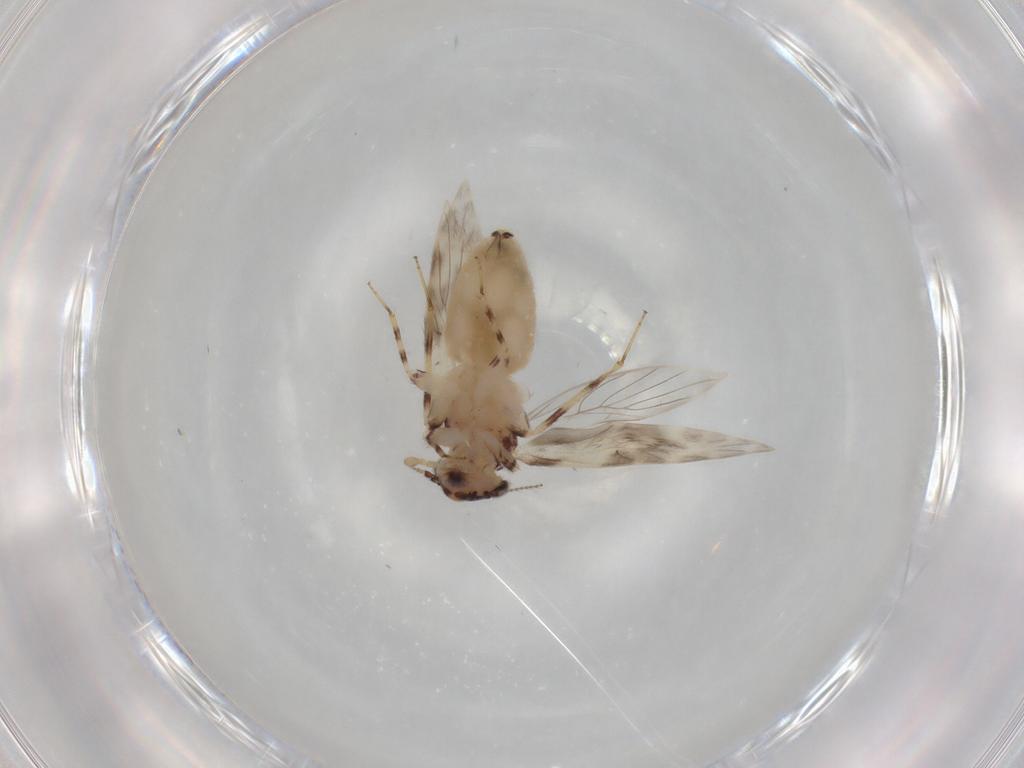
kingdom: Animalia
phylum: Arthropoda
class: Insecta
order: Psocodea
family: Lepidopsocidae
